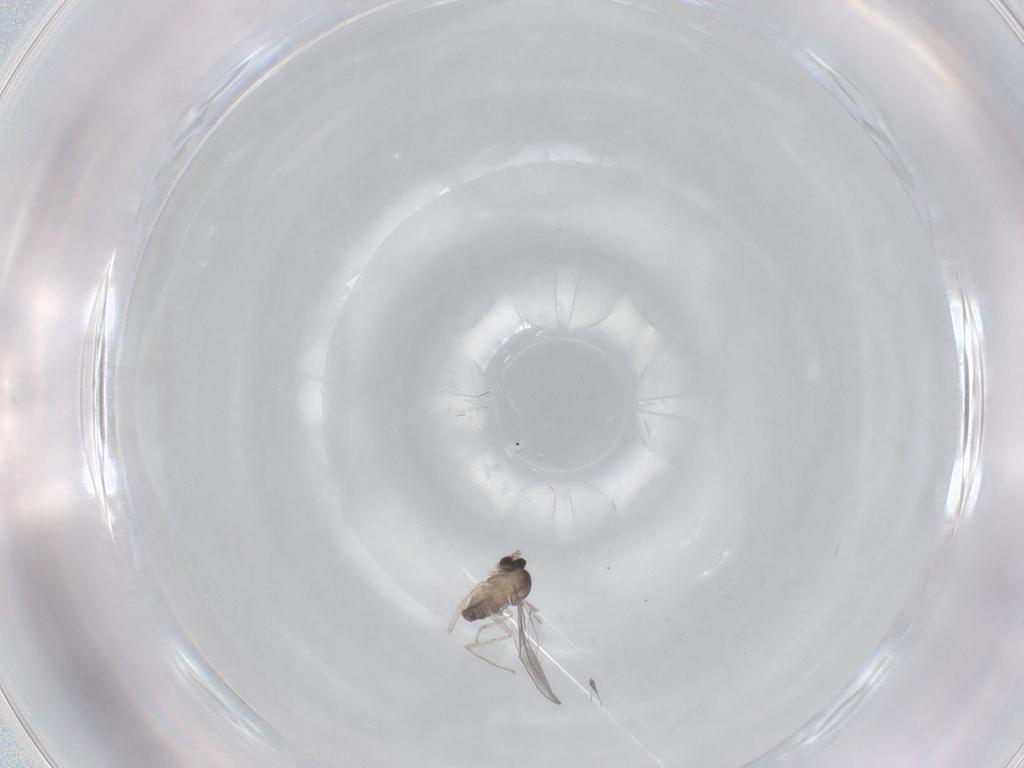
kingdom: Animalia
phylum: Arthropoda
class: Insecta
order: Diptera
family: Cecidomyiidae
